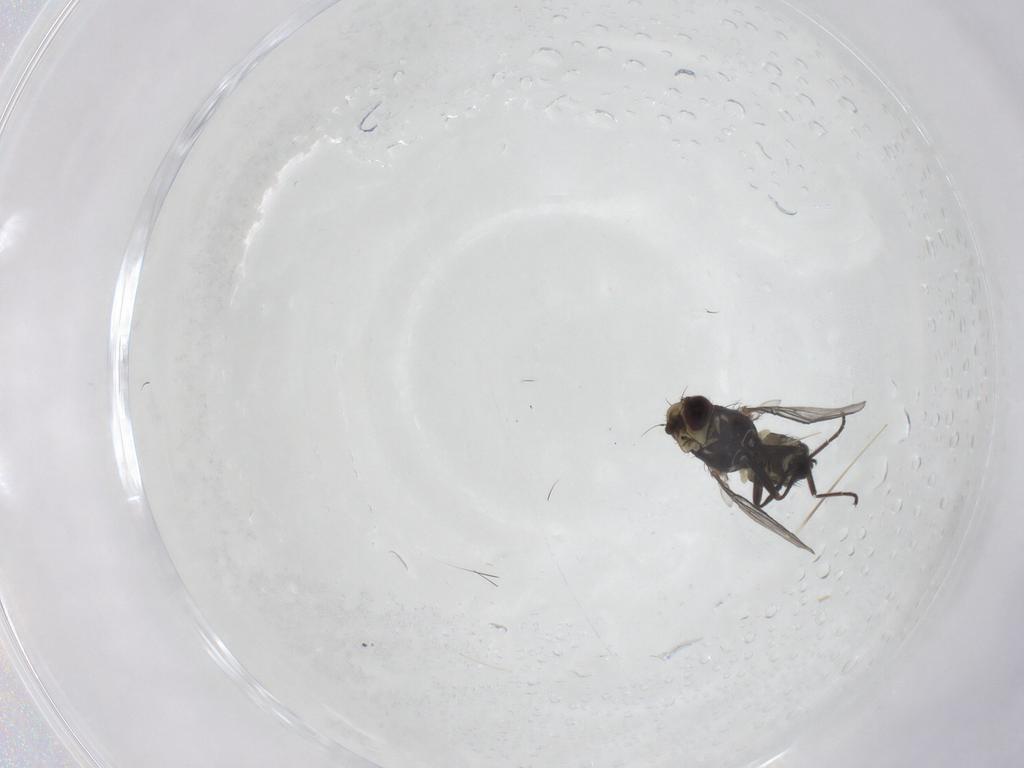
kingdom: Animalia
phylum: Arthropoda
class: Insecta
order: Diptera
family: Agromyzidae
